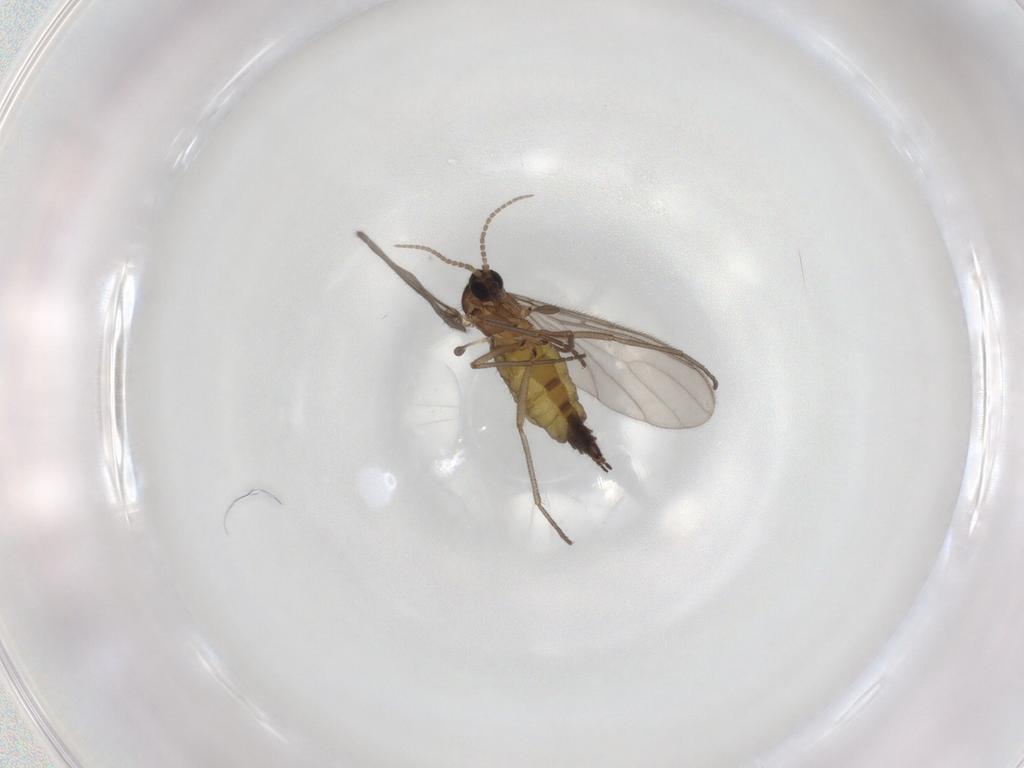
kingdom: Animalia
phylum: Arthropoda
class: Insecta
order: Diptera
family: Sciaridae
